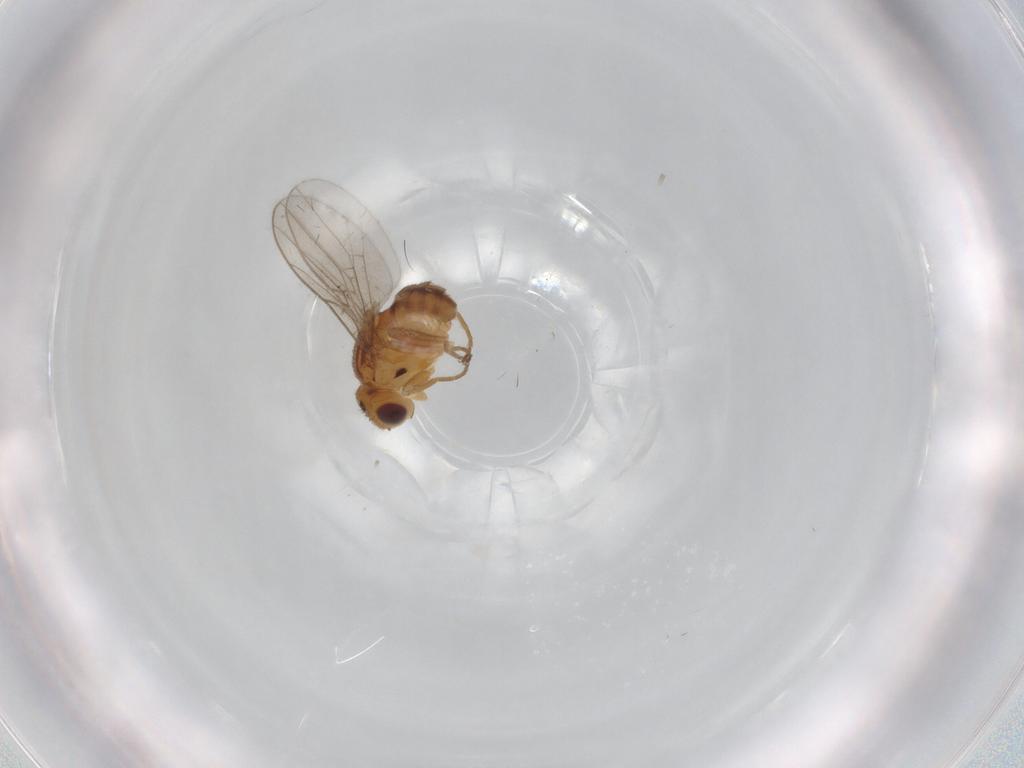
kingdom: Animalia
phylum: Arthropoda
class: Insecta
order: Diptera
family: Chloropidae
